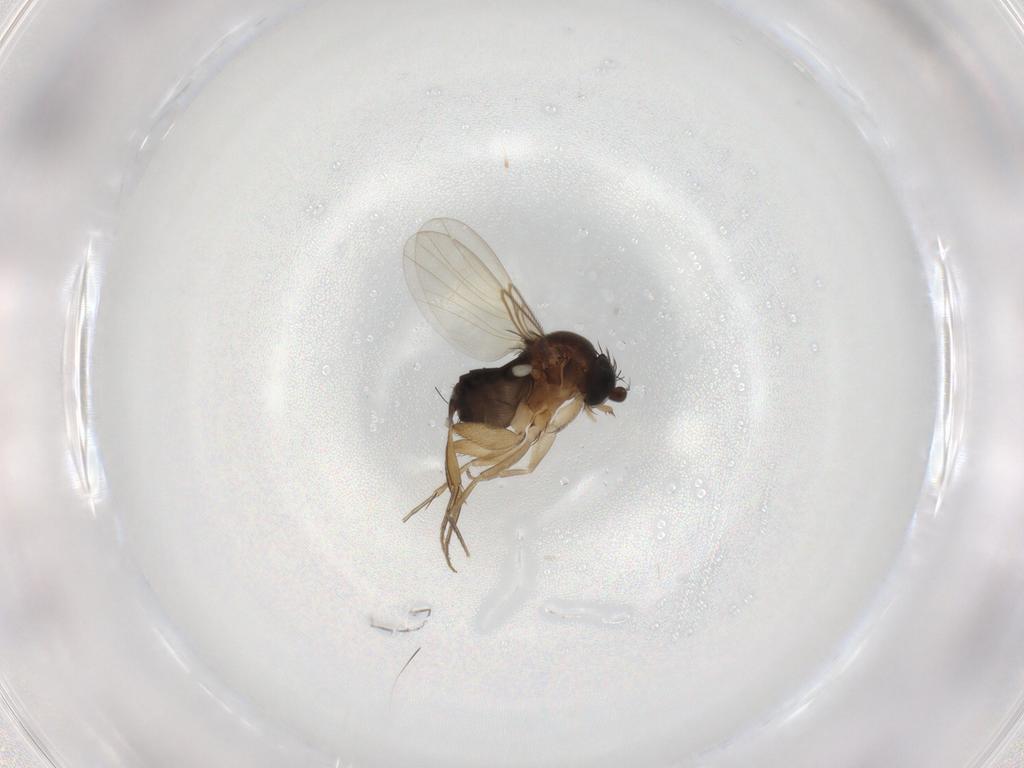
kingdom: Animalia
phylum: Arthropoda
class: Insecta
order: Diptera
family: Phoridae
